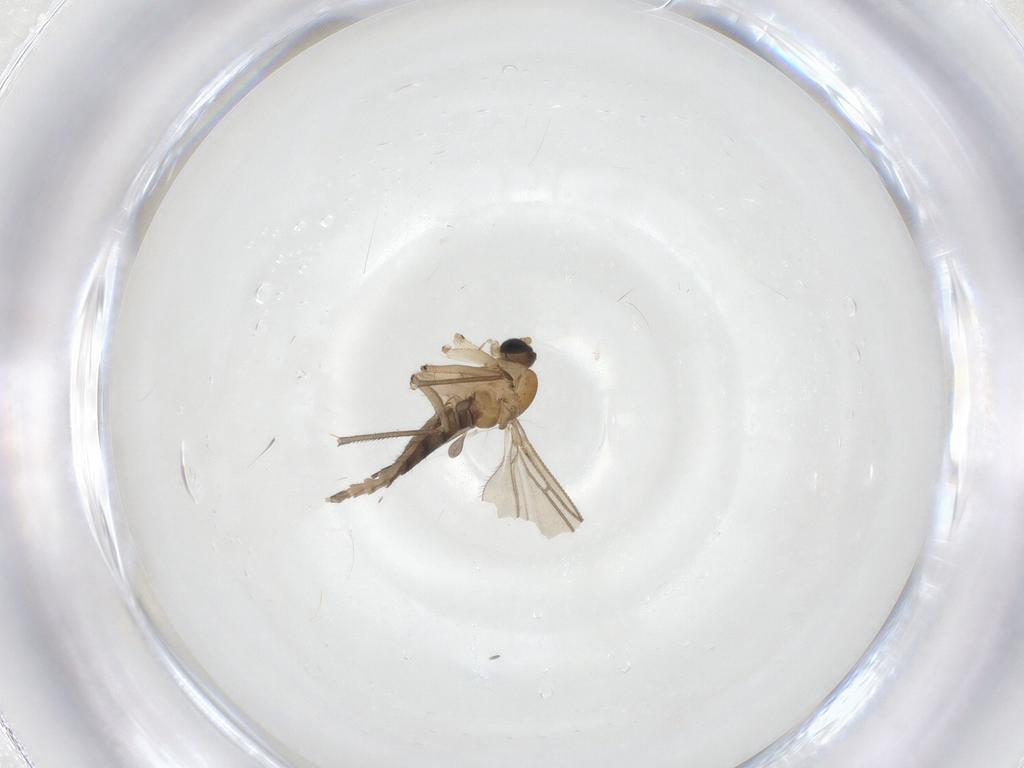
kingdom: Animalia
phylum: Arthropoda
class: Insecta
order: Diptera
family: Sciaridae
